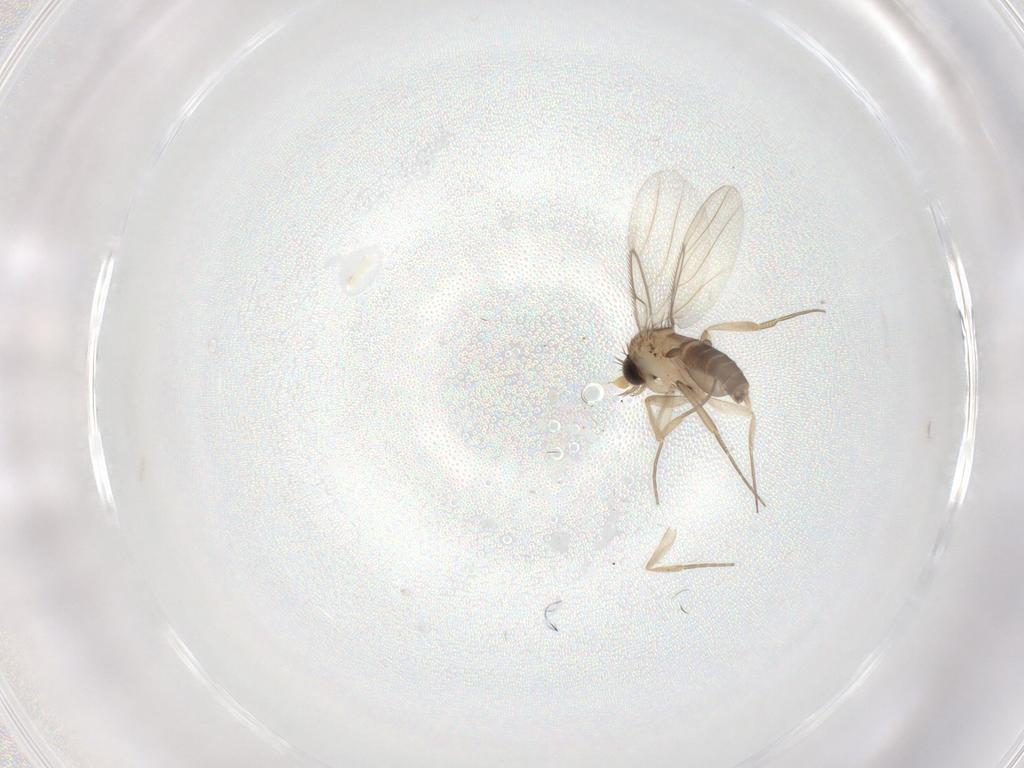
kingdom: Animalia
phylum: Arthropoda
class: Insecta
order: Diptera
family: Phoridae
